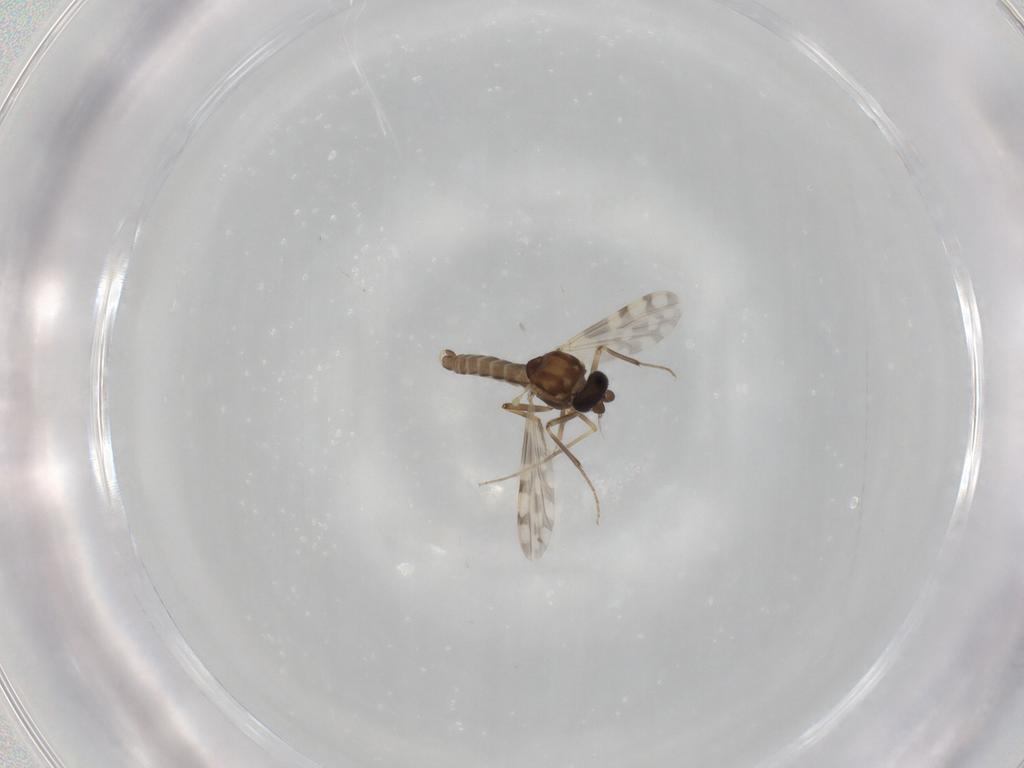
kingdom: Animalia
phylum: Arthropoda
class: Insecta
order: Diptera
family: Ceratopogonidae
